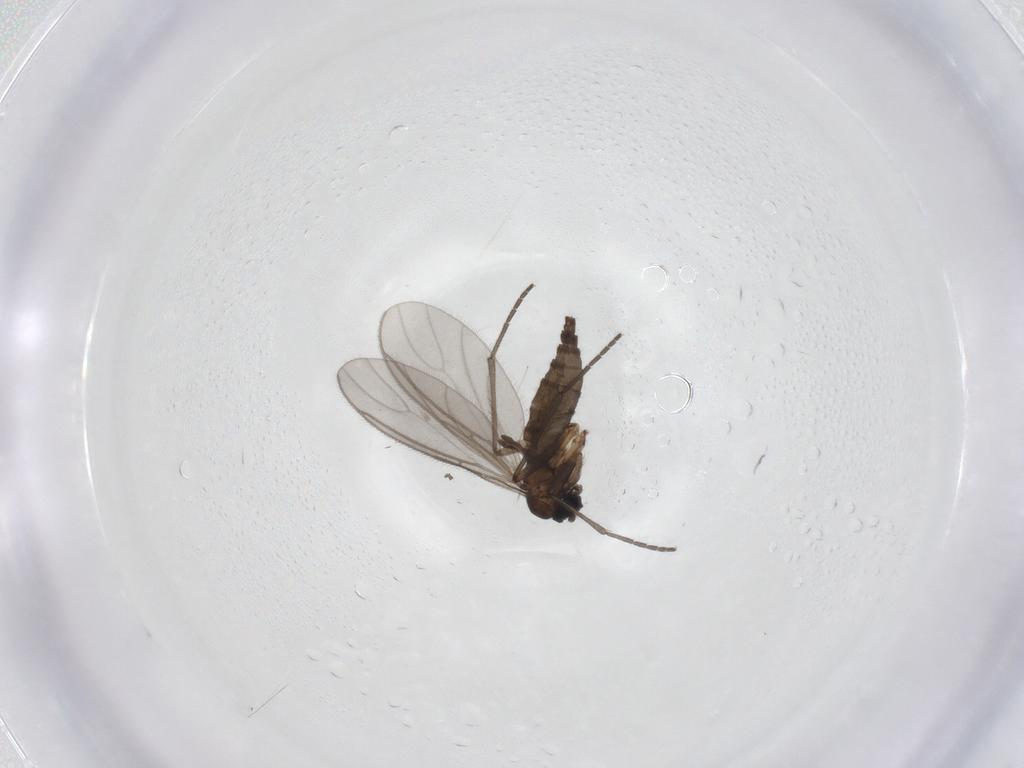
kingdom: Animalia
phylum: Arthropoda
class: Insecta
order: Diptera
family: Sciaridae
